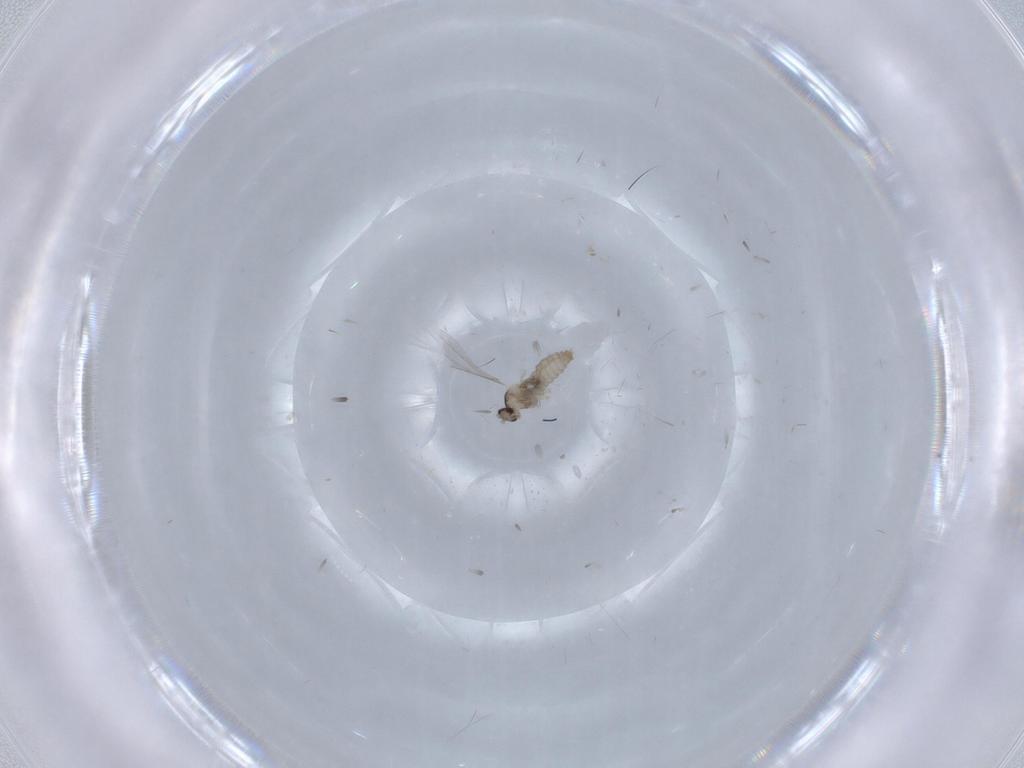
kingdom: Animalia
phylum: Arthropoda
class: Insecta
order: Diptera
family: Cecidomyiidae
